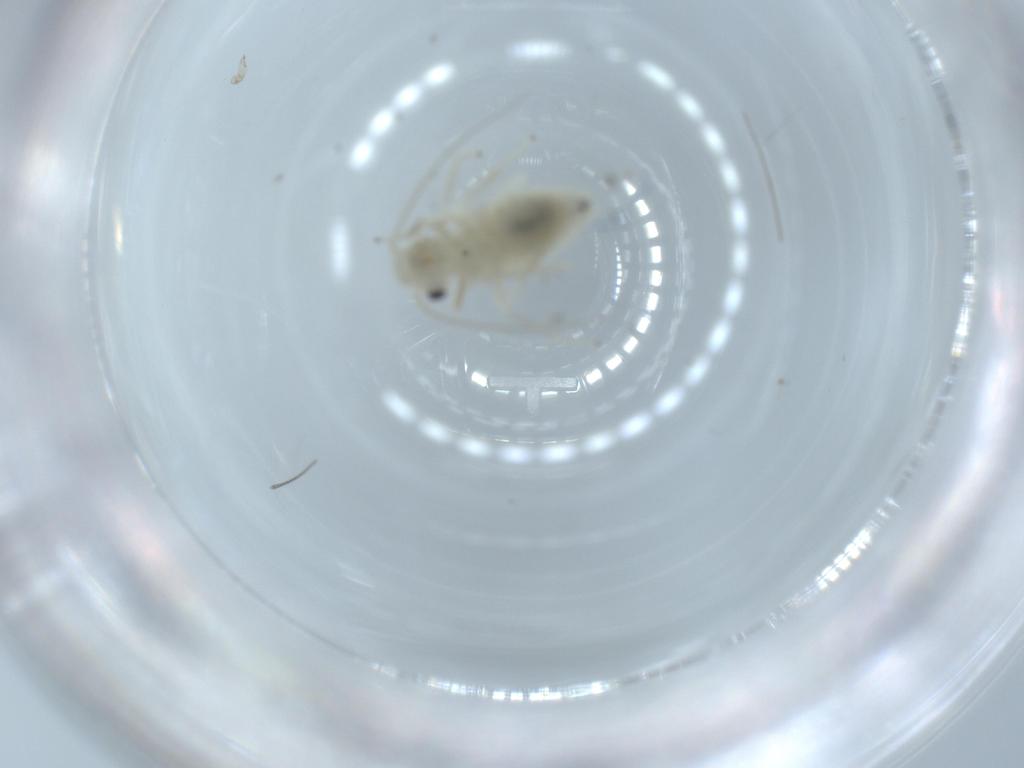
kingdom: Animalia
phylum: Arthropoda
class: Insecta
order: Psocodea
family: Caeciliusidae
